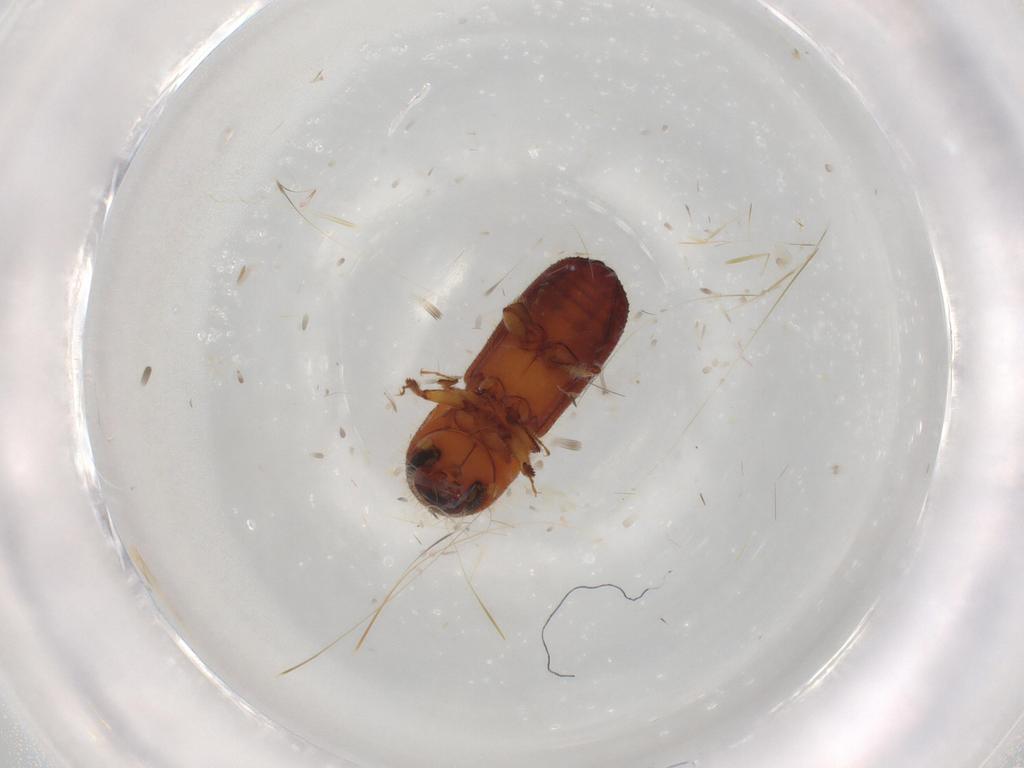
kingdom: Animalia
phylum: Arthropoda
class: Insecta
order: Coleoptera
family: Curculionidae
